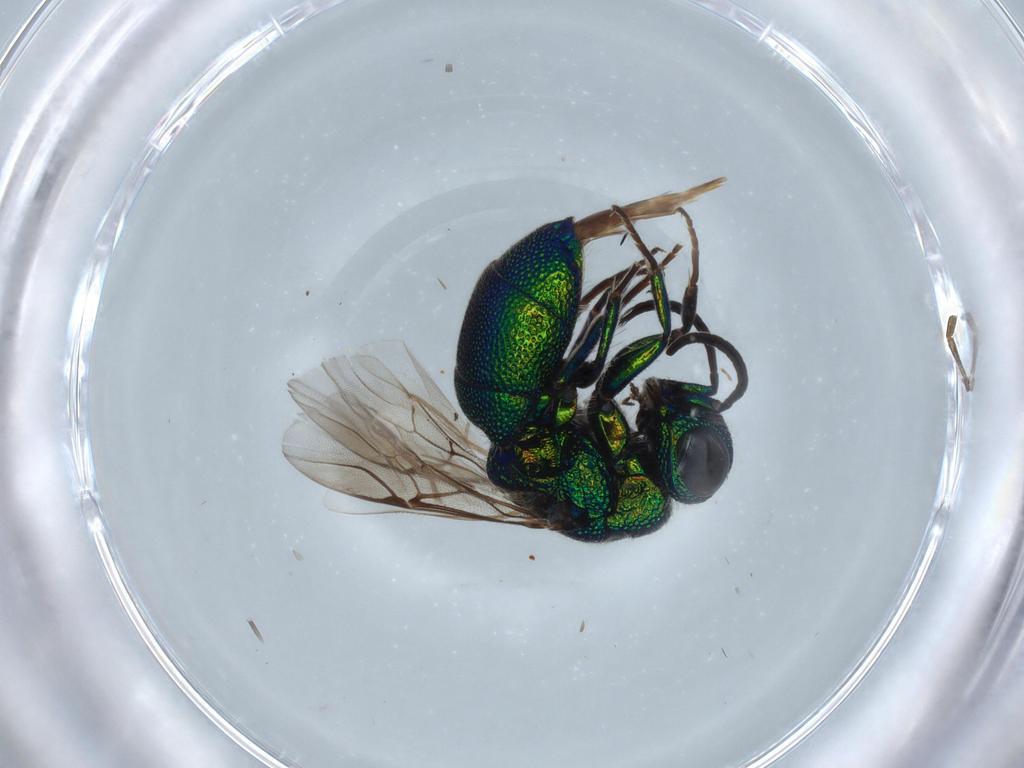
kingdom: Animalia
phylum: Arthropoda
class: Insecta
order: Hymenoptera
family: Chrysididae
